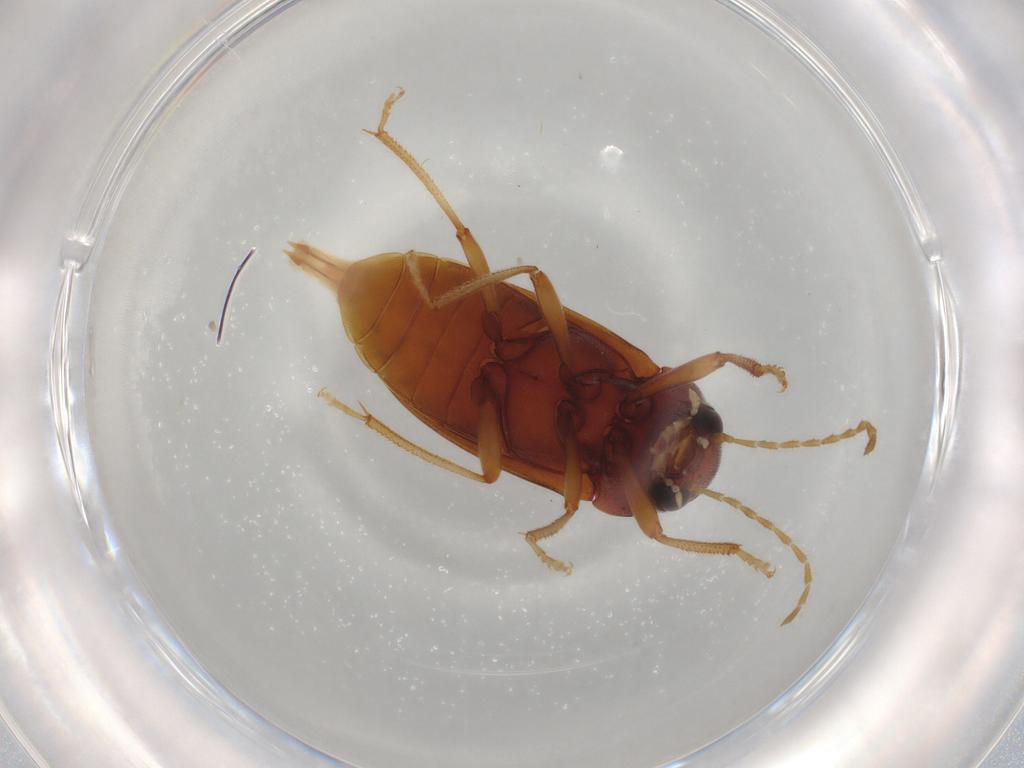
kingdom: Animalia
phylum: Arthropoda
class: Insecta
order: Coleoptera
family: Ptilodactylidae
